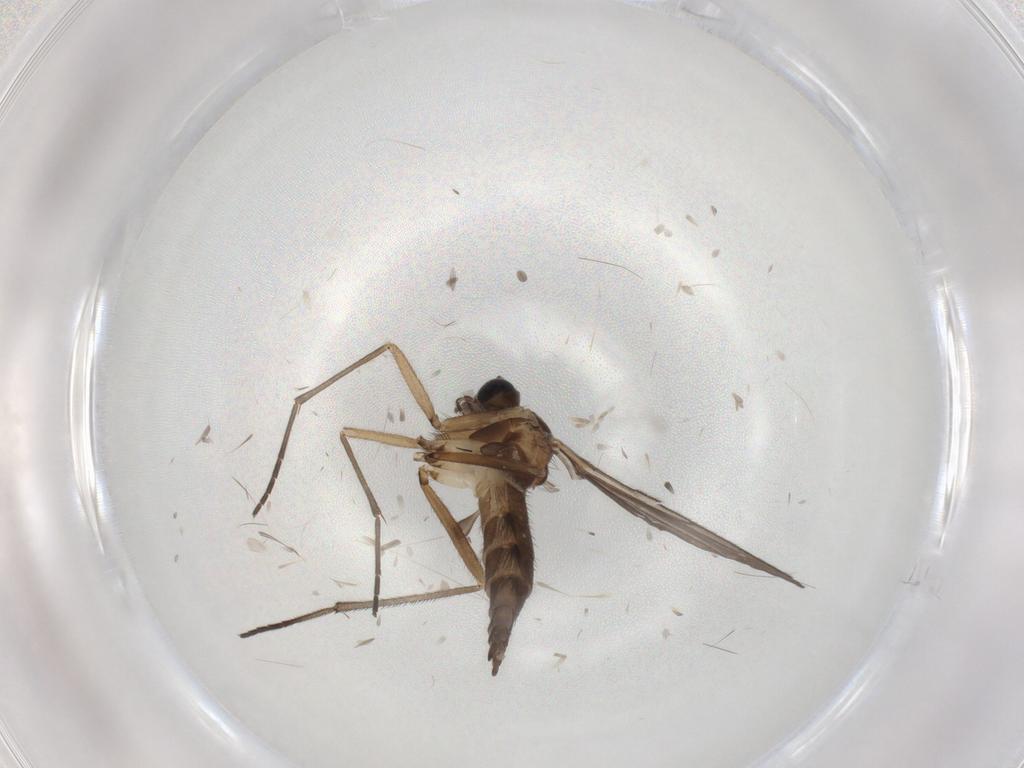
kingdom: Animalia
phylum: Arthropoda
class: Insecta
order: Diptera
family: Sciaridae
